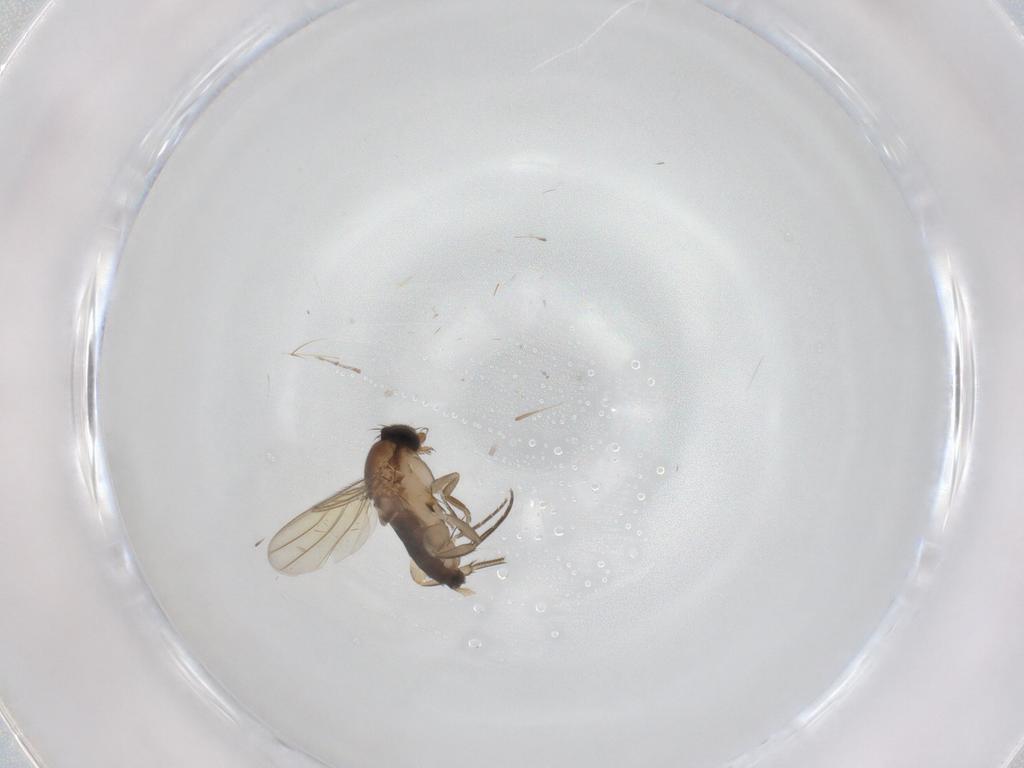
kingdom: Animalia
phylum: Arthropoda
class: Insecta
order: Diptera
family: Phoridae
